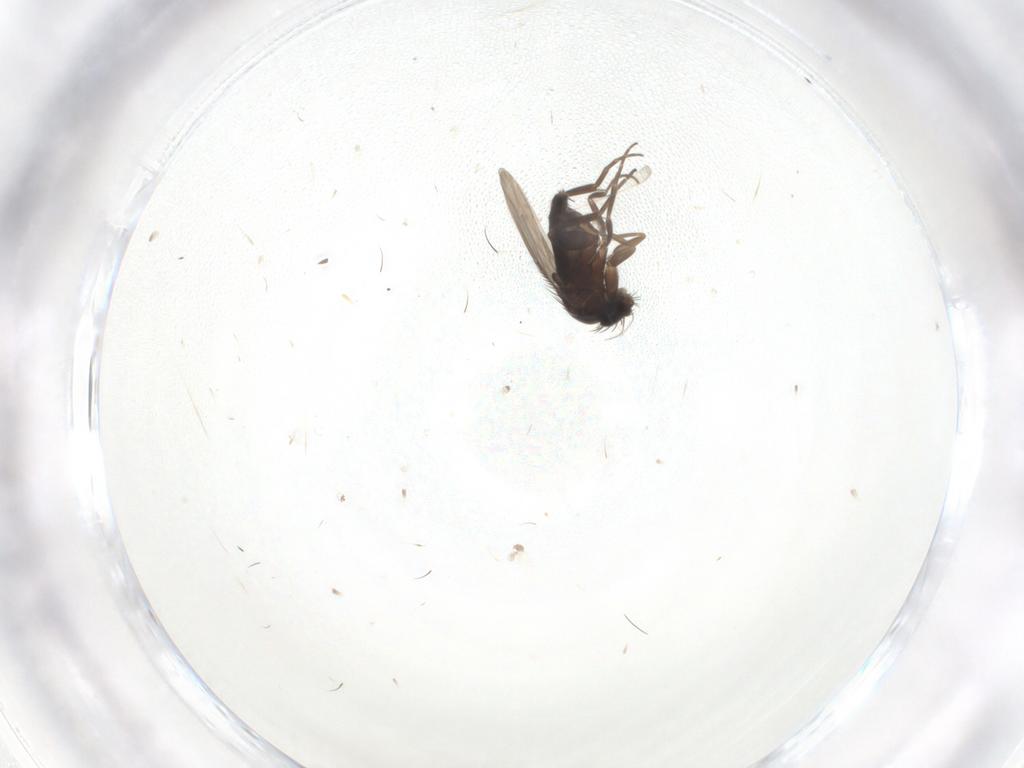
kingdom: Animalia
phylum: Arthropoda
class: Insecta
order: Diptera
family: Phoridae
